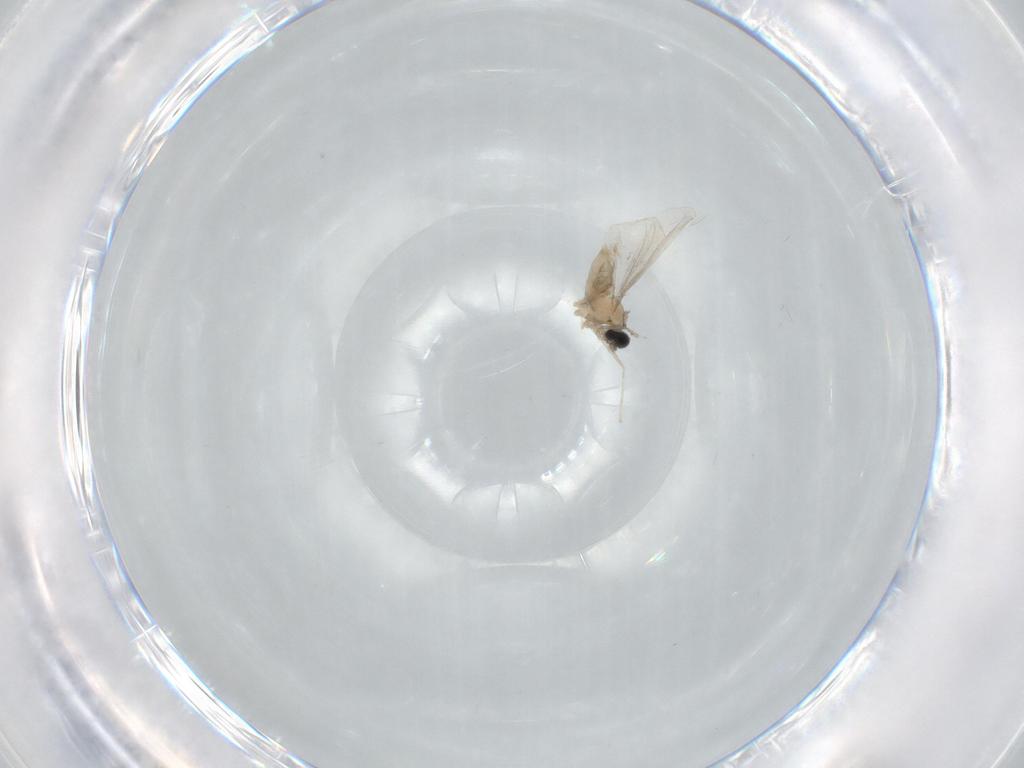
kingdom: Animalia
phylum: Arthropoda
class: Insecta
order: Diptera
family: Cecidomyiidae
